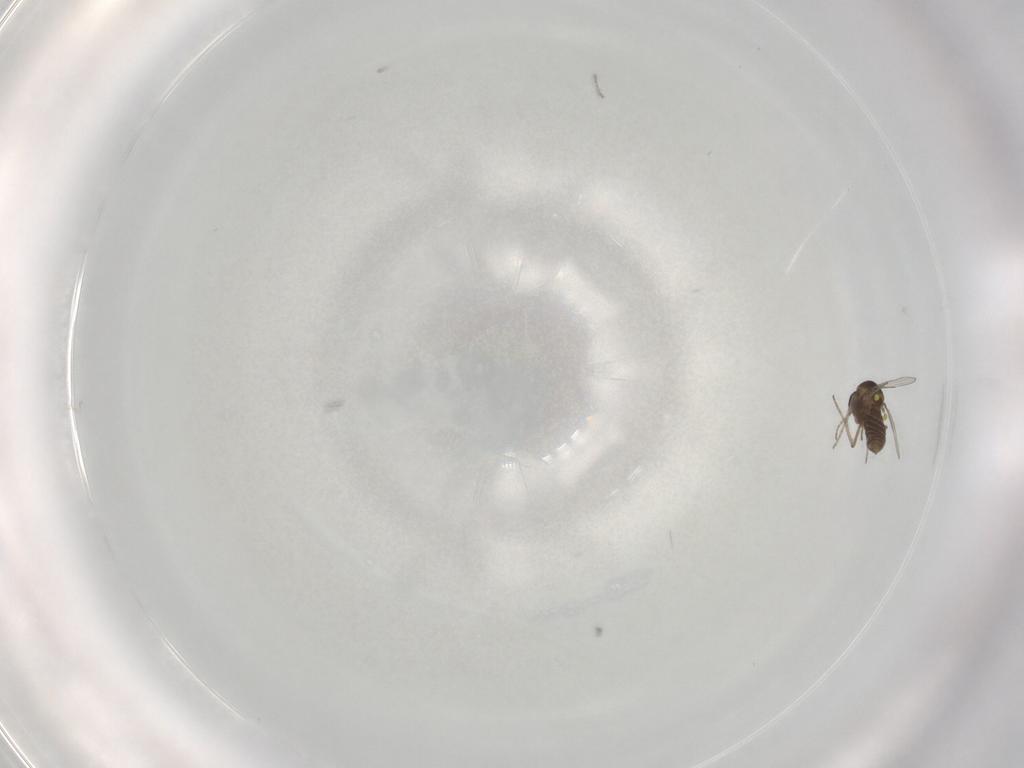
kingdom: Animalia
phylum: Arthropoda
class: Insecta
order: Diptera
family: Ceratopogonidae
